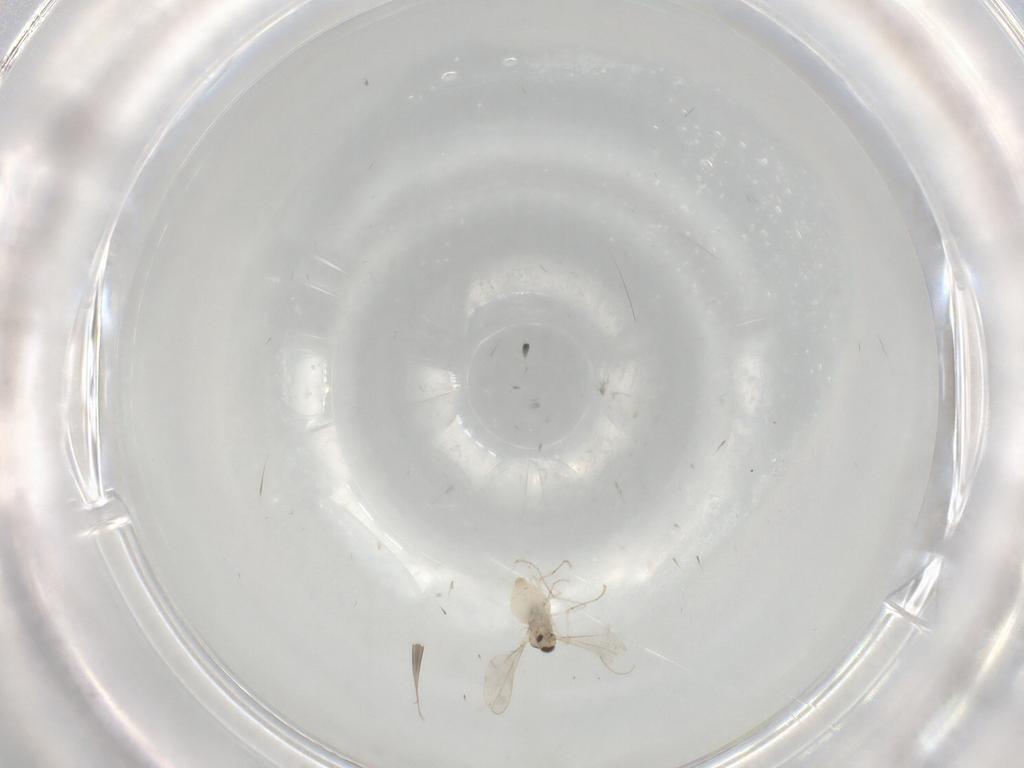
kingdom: Animalia
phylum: Arthropoda
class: Insecta
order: Diptera
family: Cecidomyiidae
